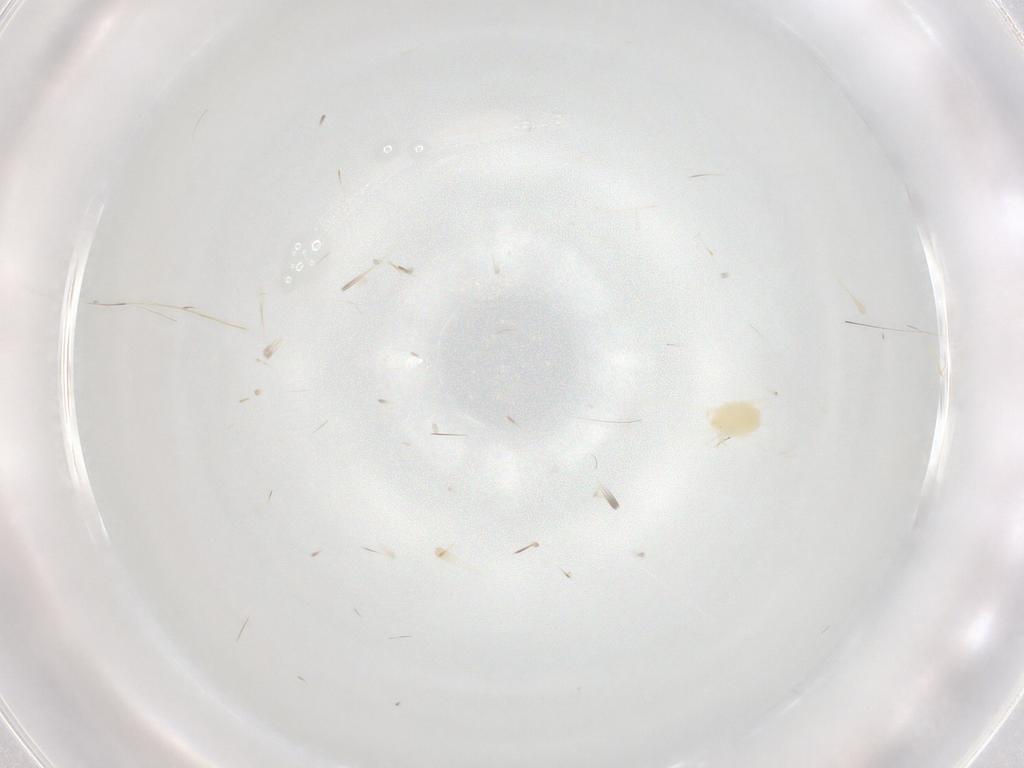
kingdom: Animalia
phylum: Arthropoda
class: Arachnida
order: Trombidiformes
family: Tetranychidae
